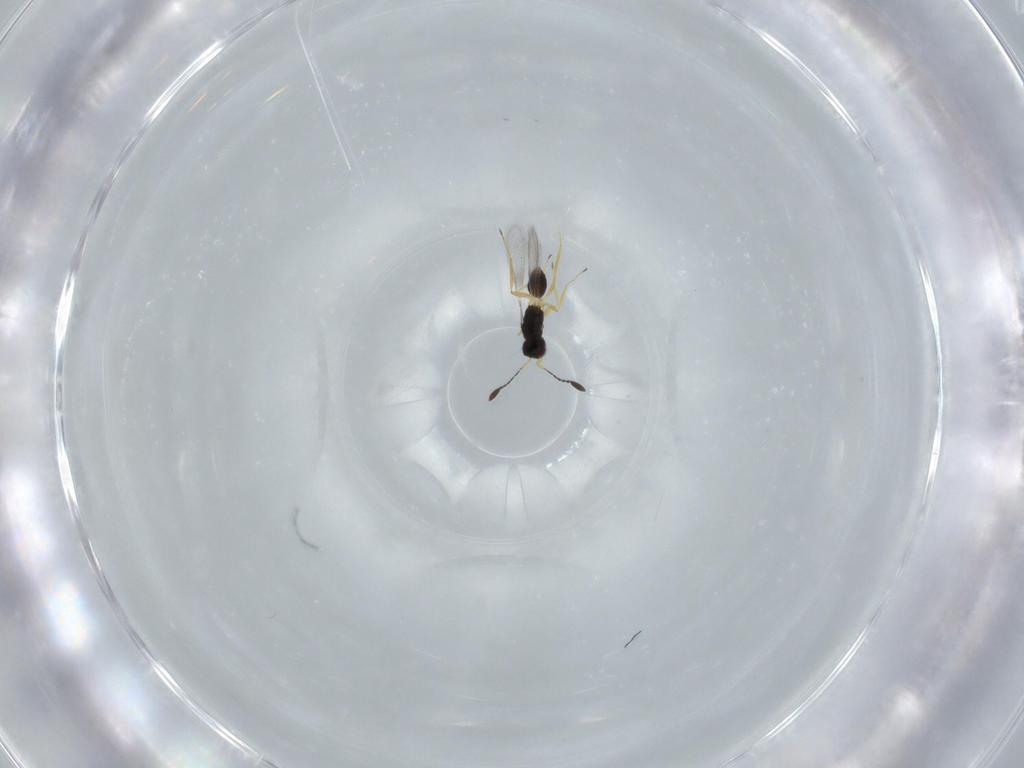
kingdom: Animalia
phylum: Arthropoda
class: Insecta
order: Hymenoptera
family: Mymaridae
